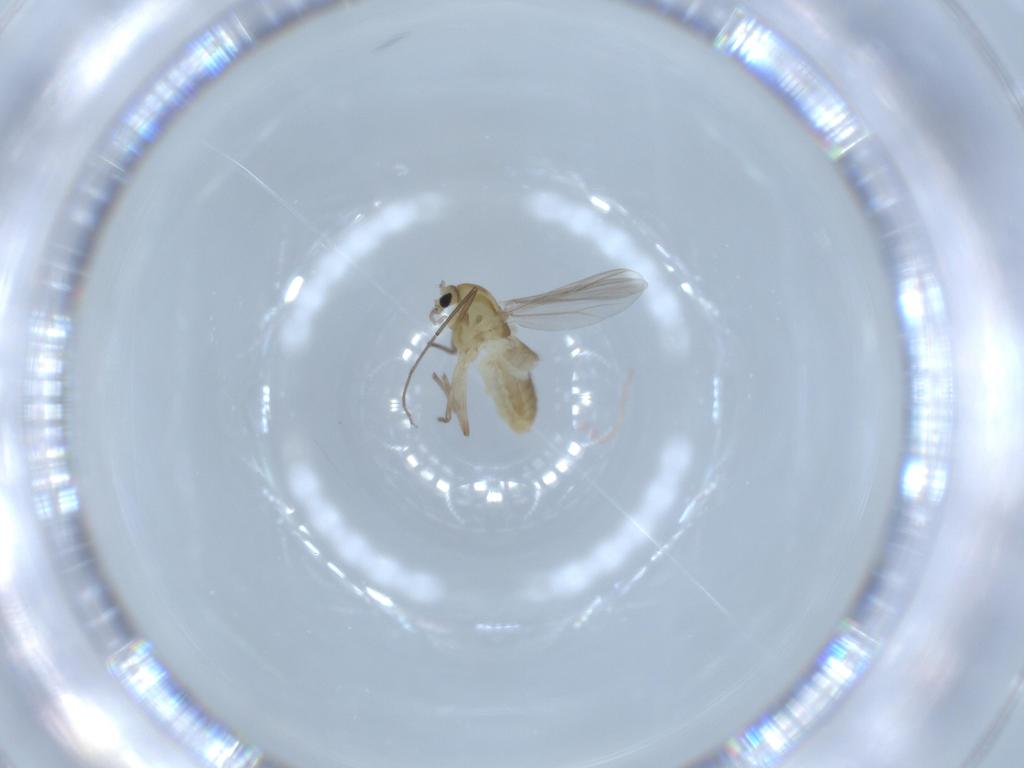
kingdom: Animalia
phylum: Arthropoda
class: Insecta
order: Diptera
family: Chironomidae
